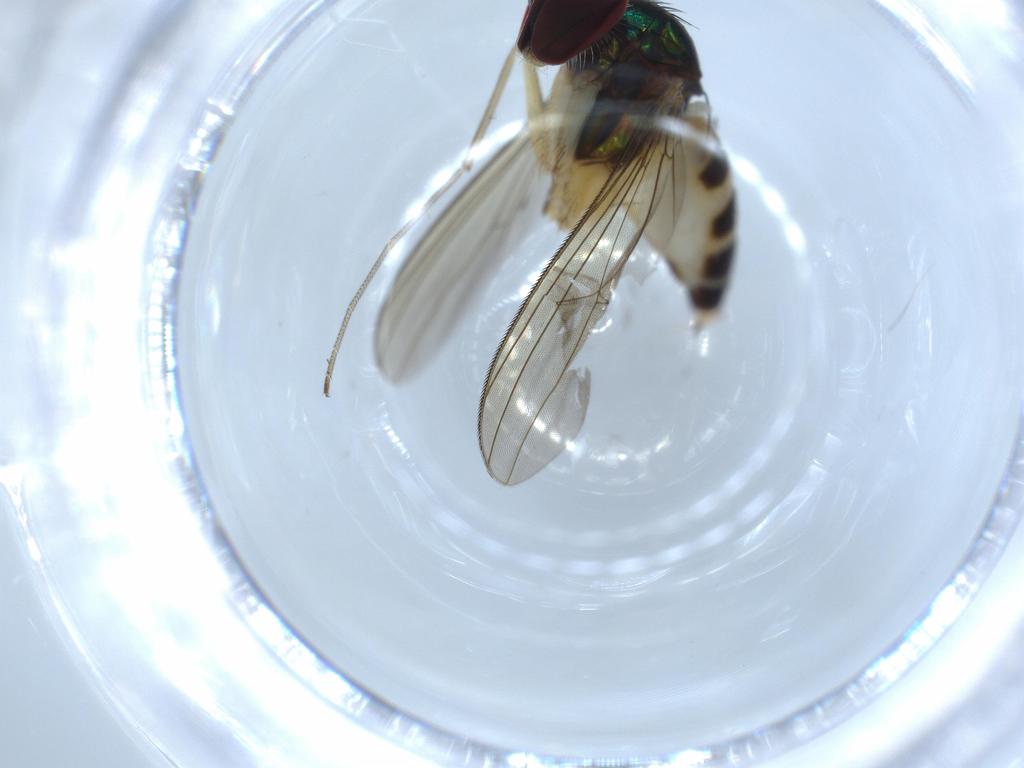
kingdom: Animalia
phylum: Arthropoda
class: Insecta
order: Diptera
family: Dolichopodidae
